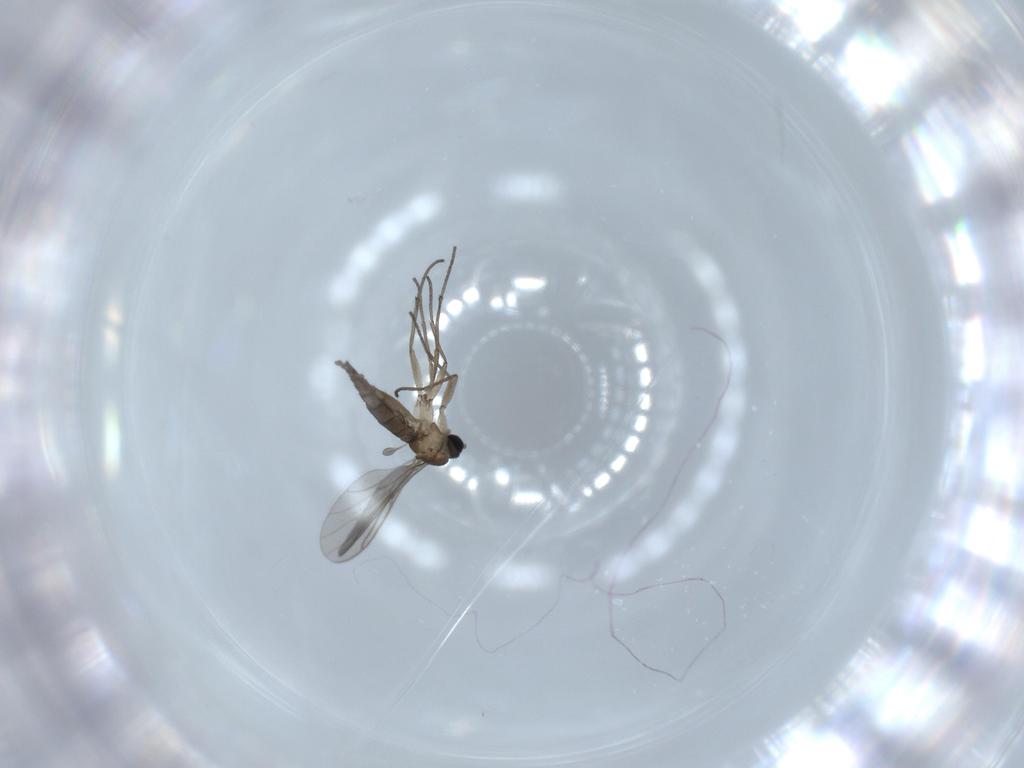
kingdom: Animalia
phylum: Arthropoda
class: Insecta
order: Diptera
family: Sciaridae
